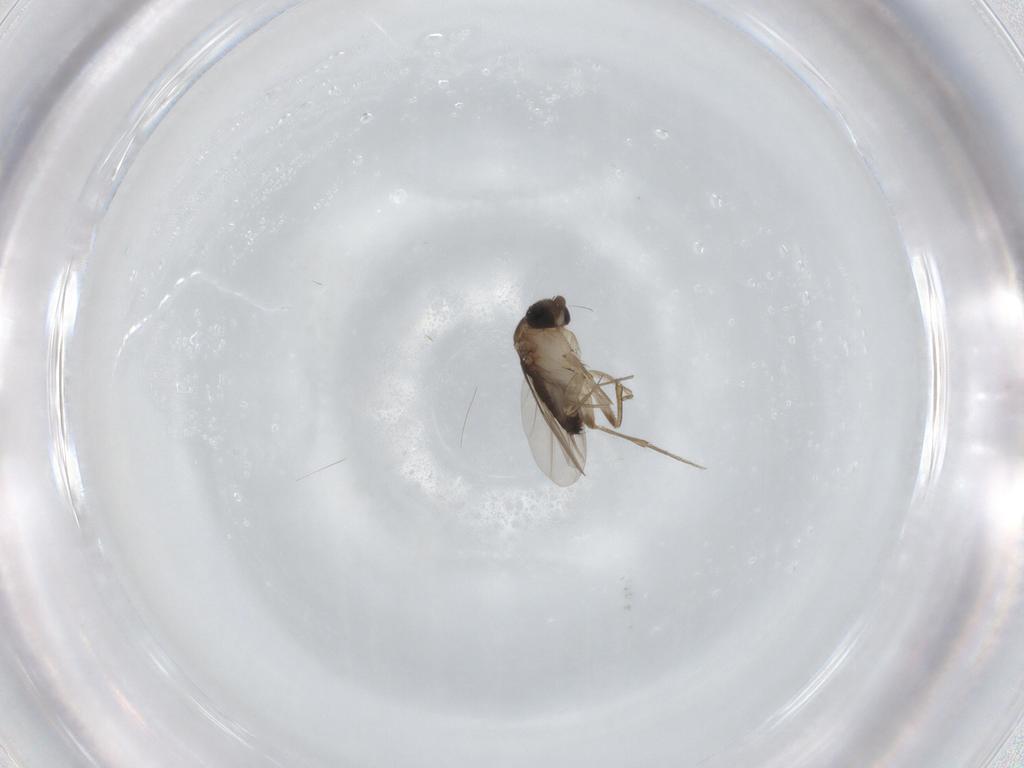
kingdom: Animalia
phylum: Arthropoda
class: Insecta
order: Diptera
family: Phoridae
